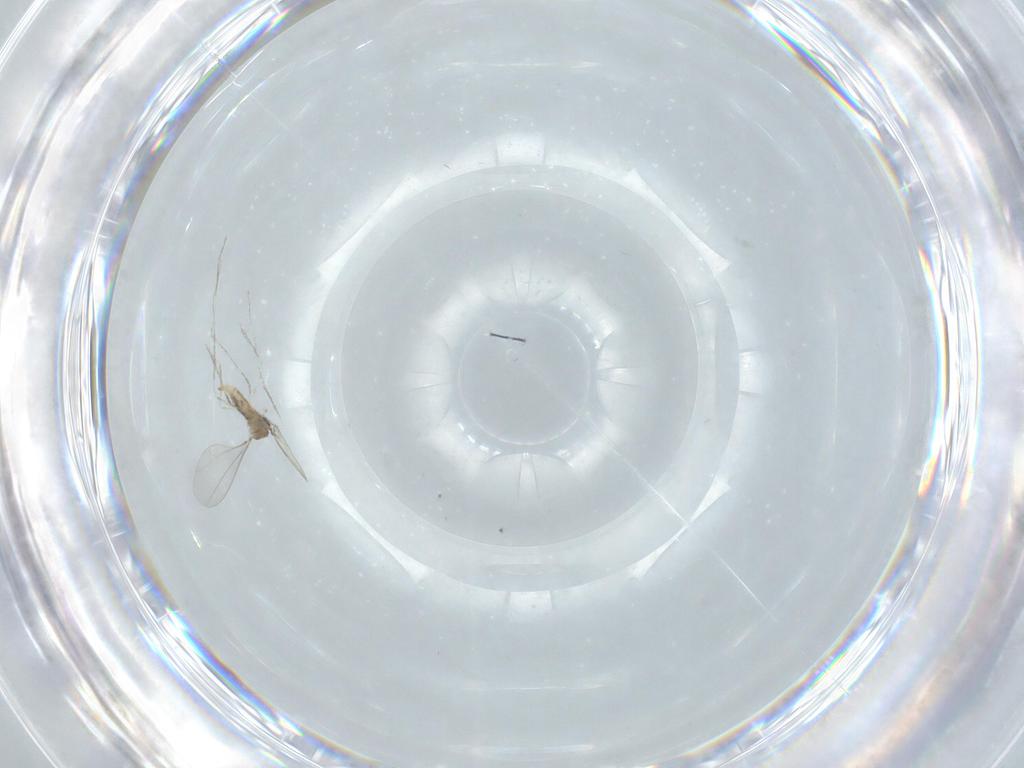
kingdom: Animalia
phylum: Arthropoda
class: Insecta
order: Diptera
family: Cecidomyiidae
